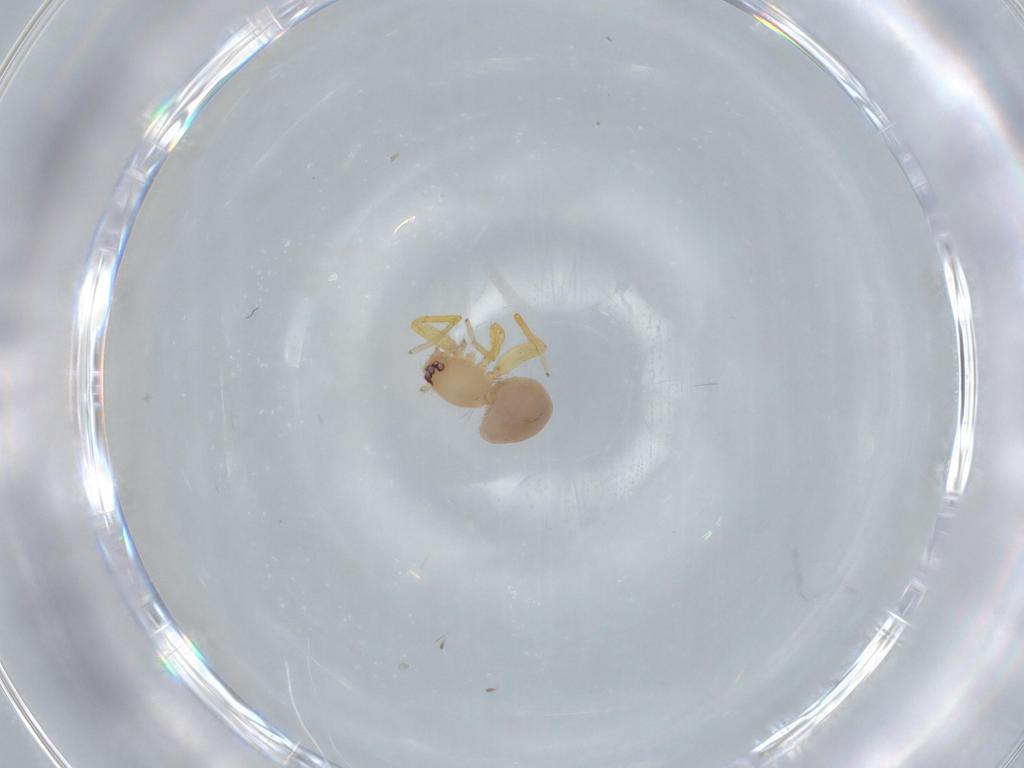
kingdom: Animalia
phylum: Arthropoda
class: Arachnida
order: Araneae
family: Oonopidae
